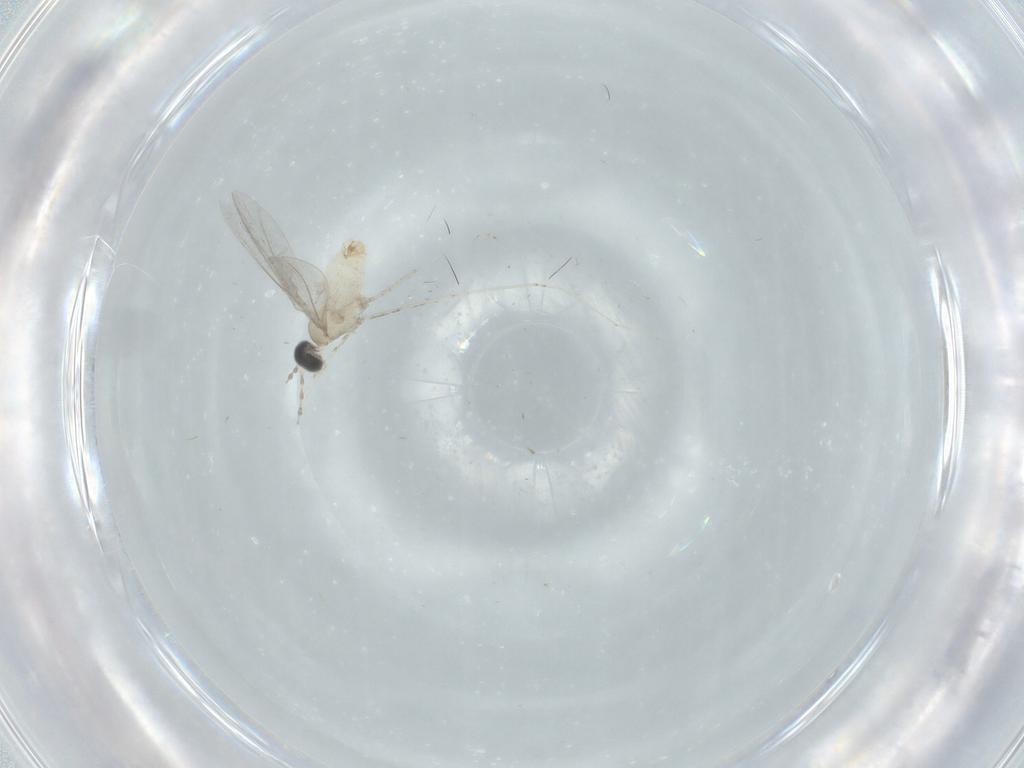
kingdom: Animalia
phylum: Arthropoda
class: Insecta
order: Diptera
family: Cecidomyiidae
